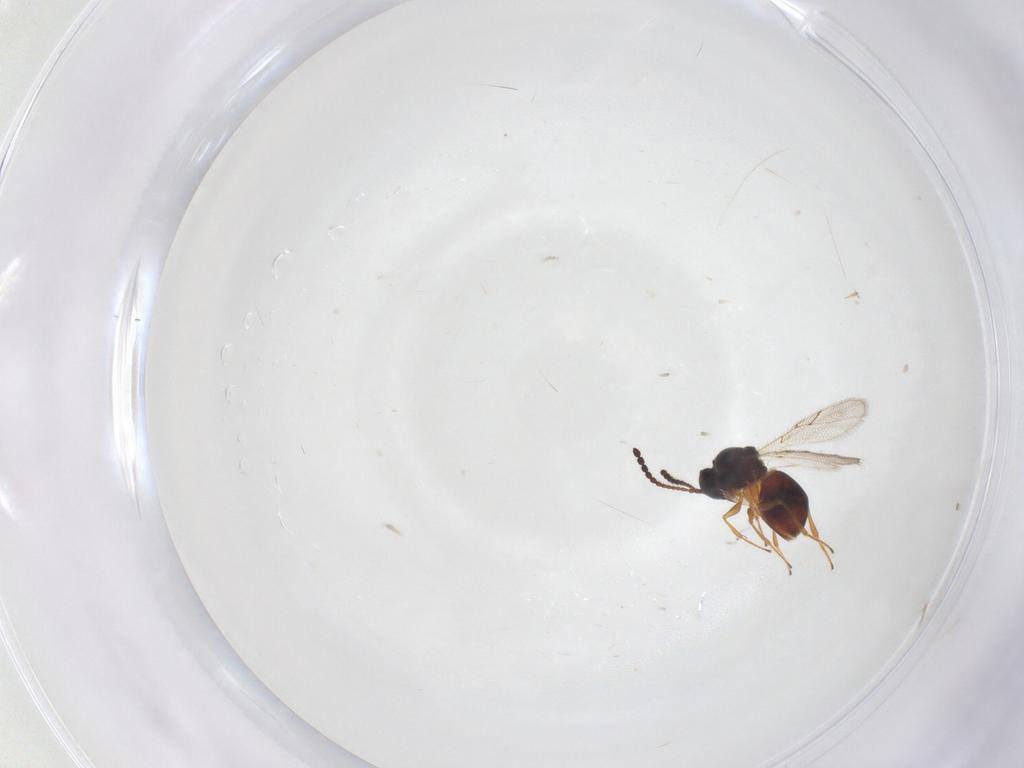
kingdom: Animalia
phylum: Arthropoda
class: Insecta
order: Hymenoptera
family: Figitidae
